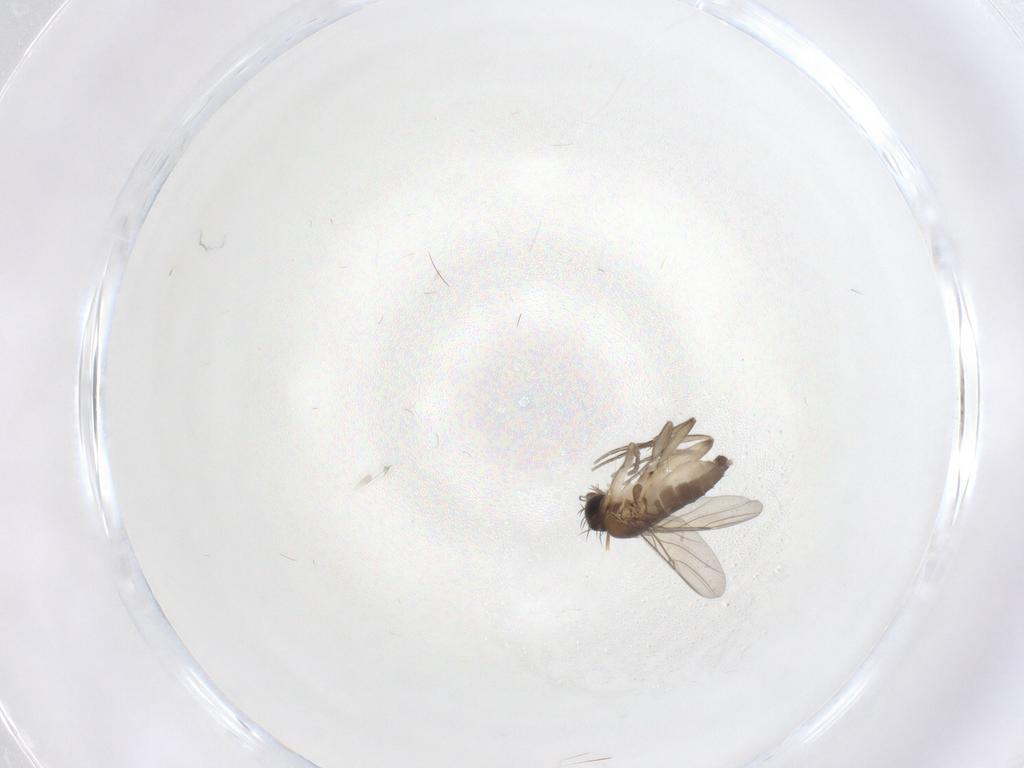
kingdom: Animalia
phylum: Arthropoda
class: Insecta
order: Diptera
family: Phoridae
